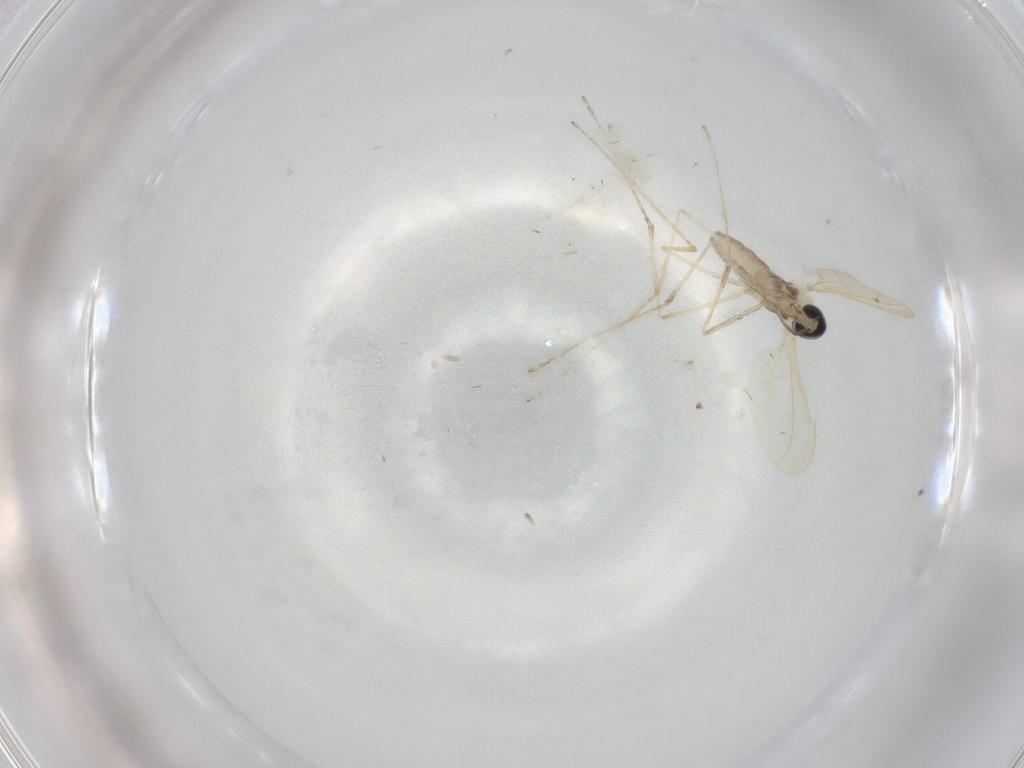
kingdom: Animalia
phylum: Arthropoda
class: Insecta
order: Diptera
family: Cecidomyiidae
